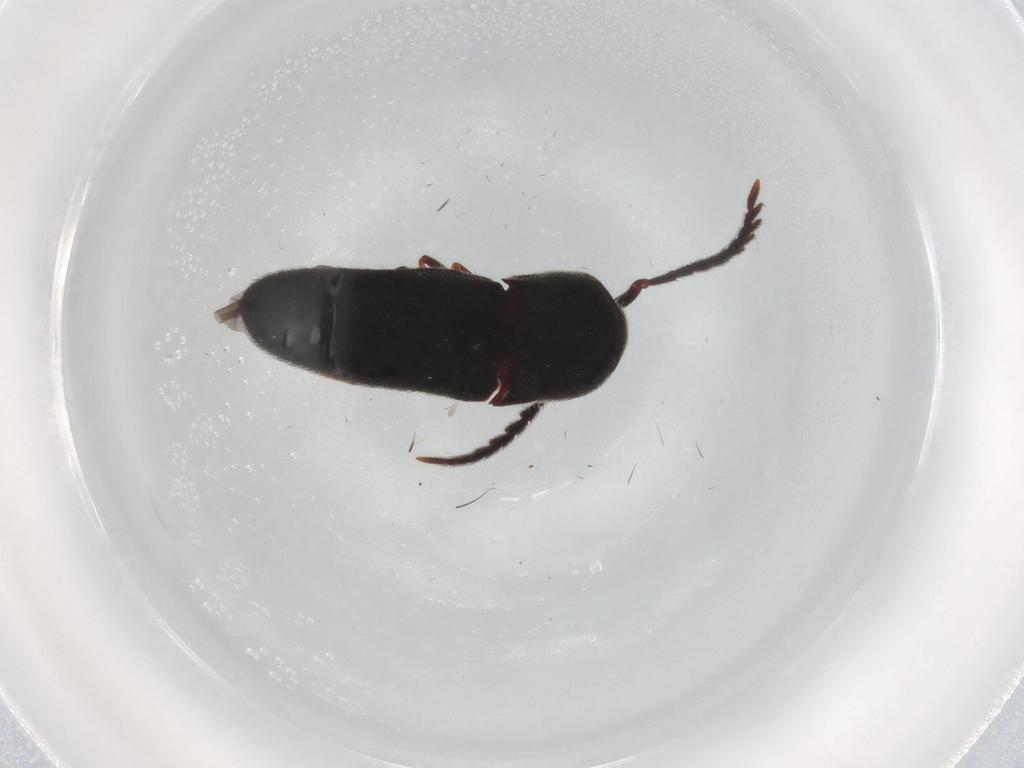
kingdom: Animalia
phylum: Arthropoda
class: Insecta
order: Coleoptera
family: Eucnemidae
